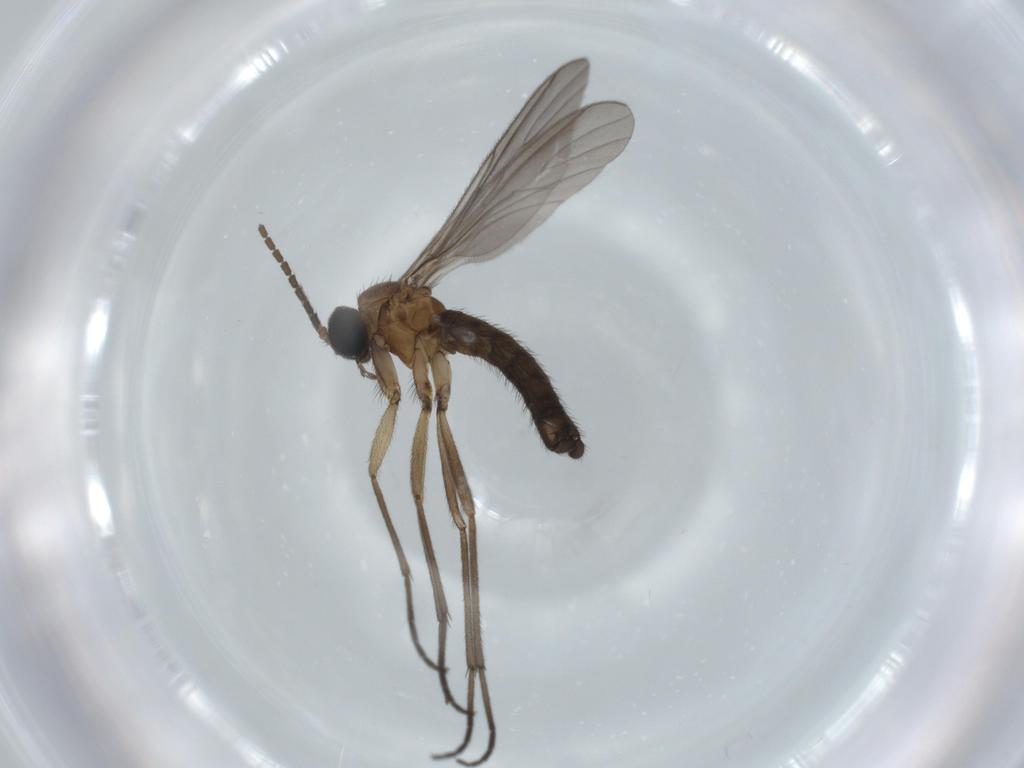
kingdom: Animalia
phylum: Arthropoda
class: Insecta
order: Diptera
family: Sciaridae
